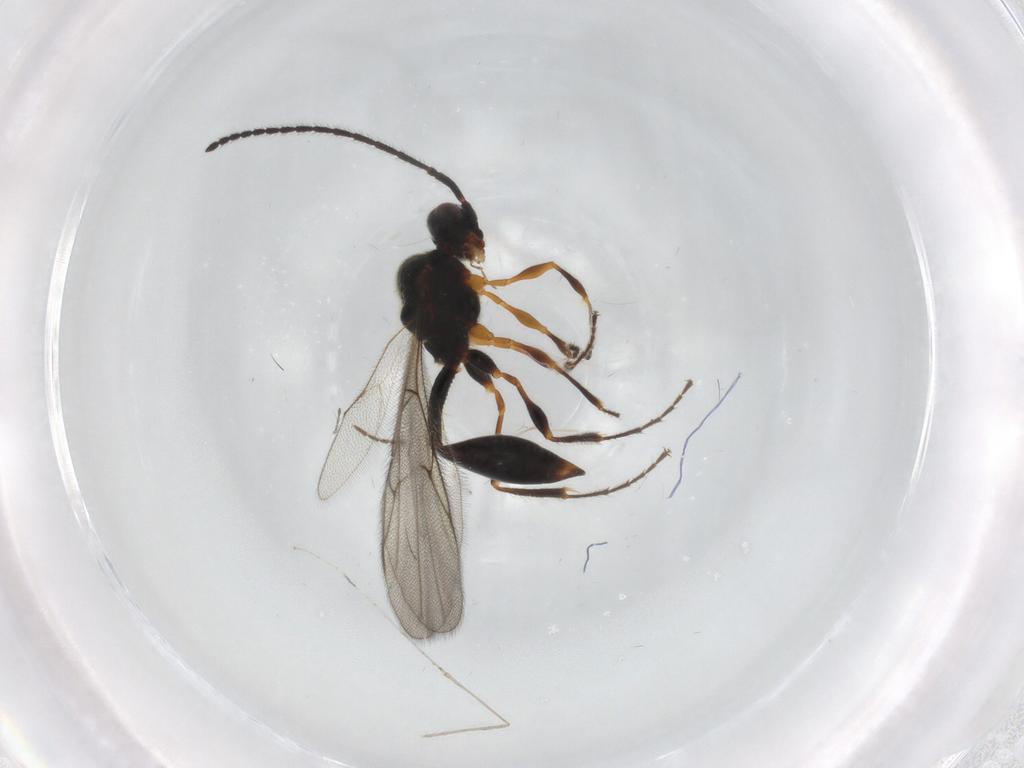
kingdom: Animalia
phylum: Arthropoda
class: Insecta
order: Hymenoptera
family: Diapriidae
